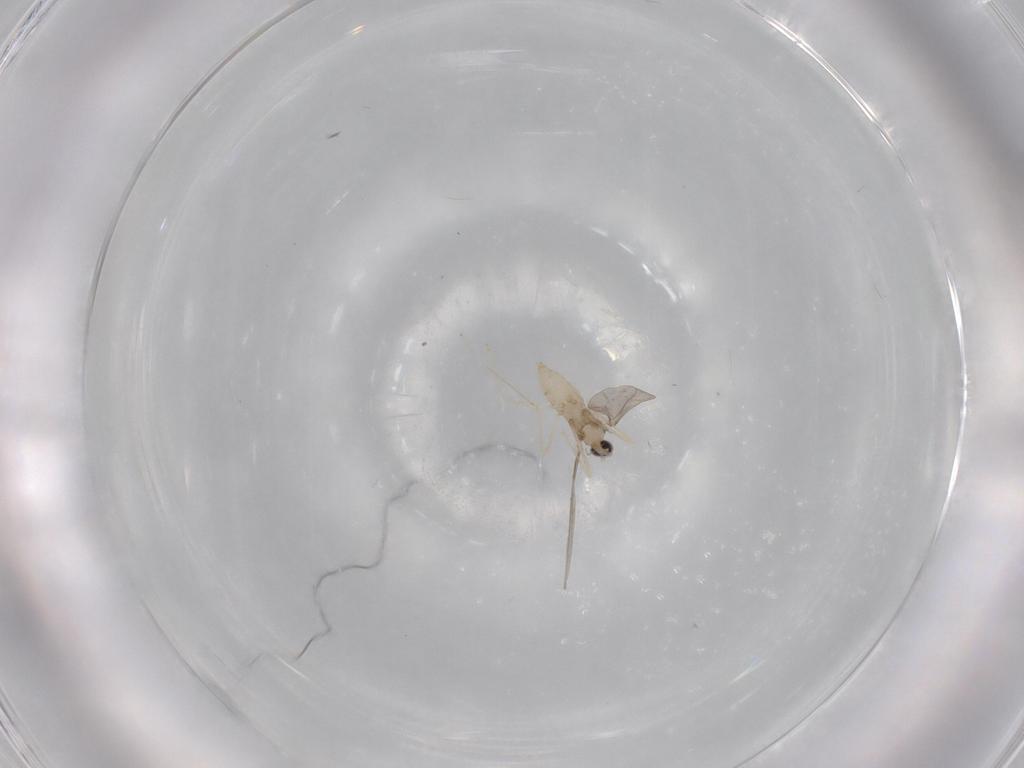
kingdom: Animalia
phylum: Arthropoda
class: Insecta
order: Diptera
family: Cecidomyiidae
